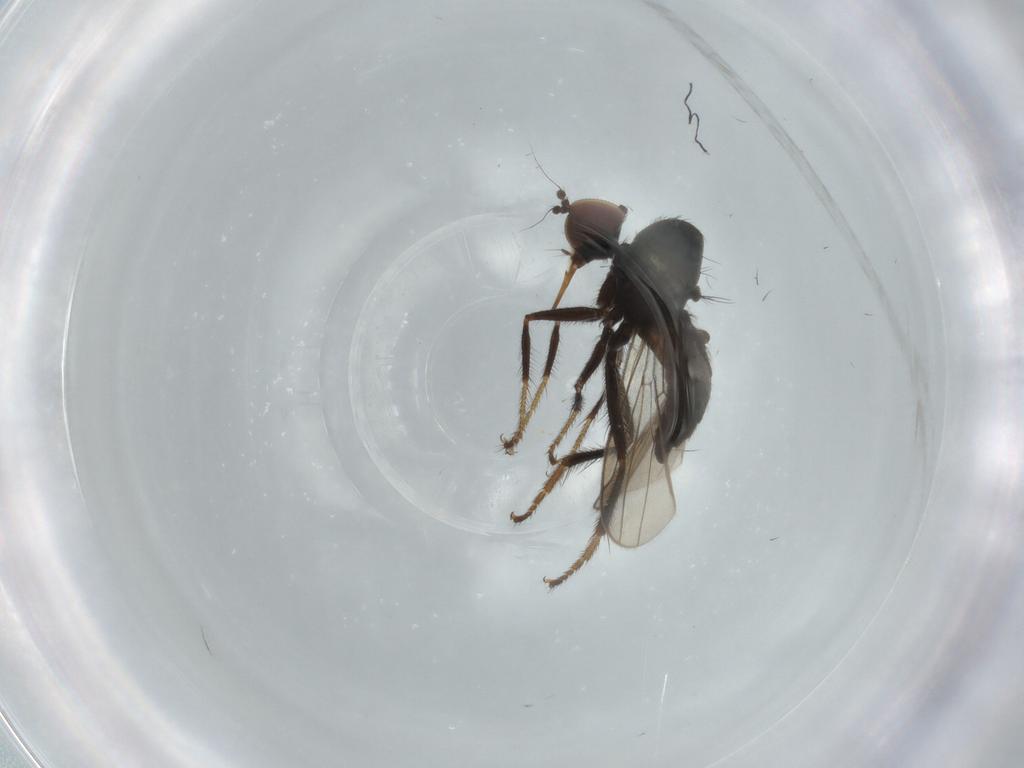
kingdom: Animalia
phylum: Arthropoda
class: Insecta
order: Diptera
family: Hybotidae
